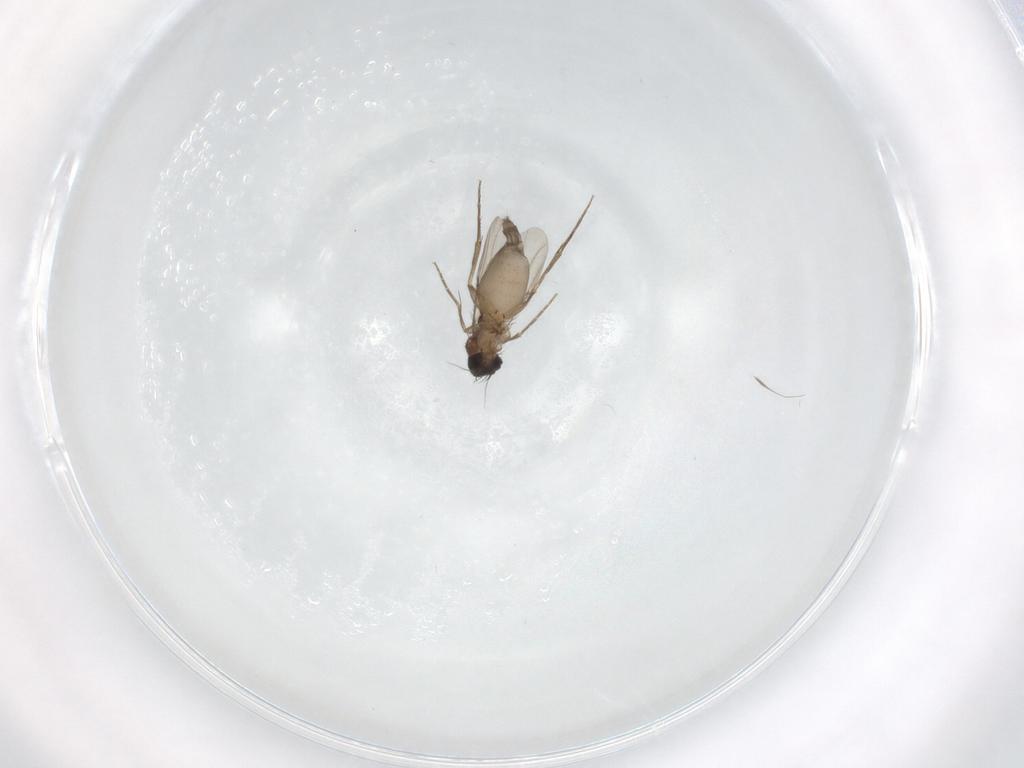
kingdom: Animalia
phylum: Arthropoda
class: Insecta
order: Diptera
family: Phoridae
